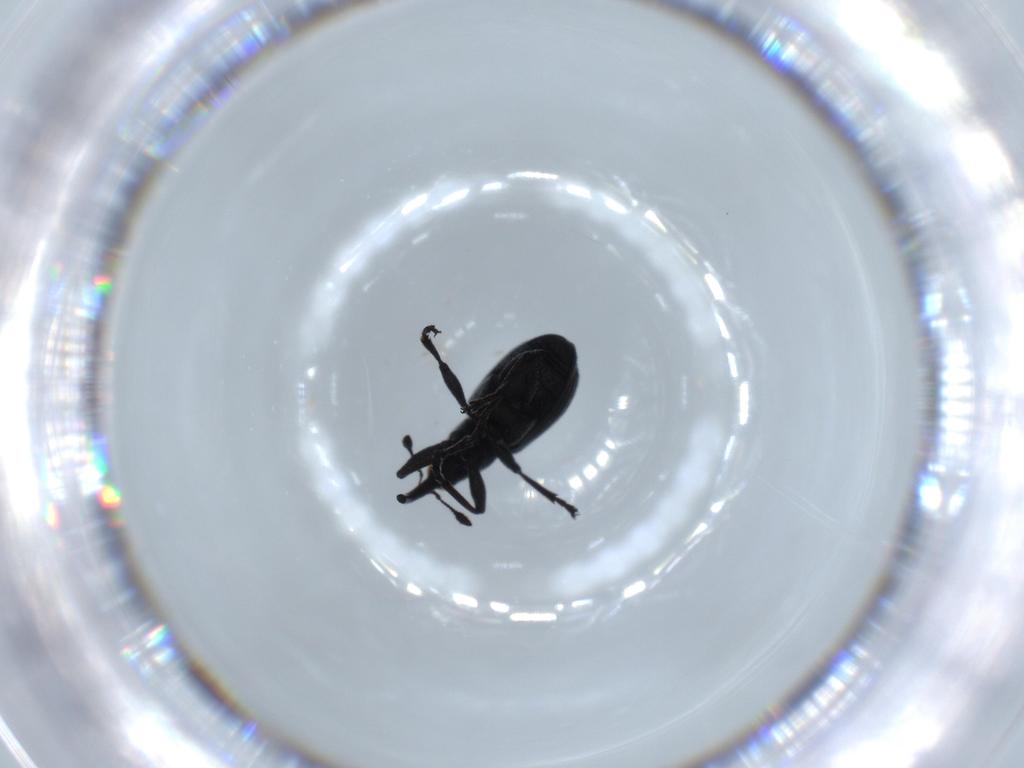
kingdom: Animalia
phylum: Arthropoda
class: Insecta
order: Coleoptera
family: Brentidae
